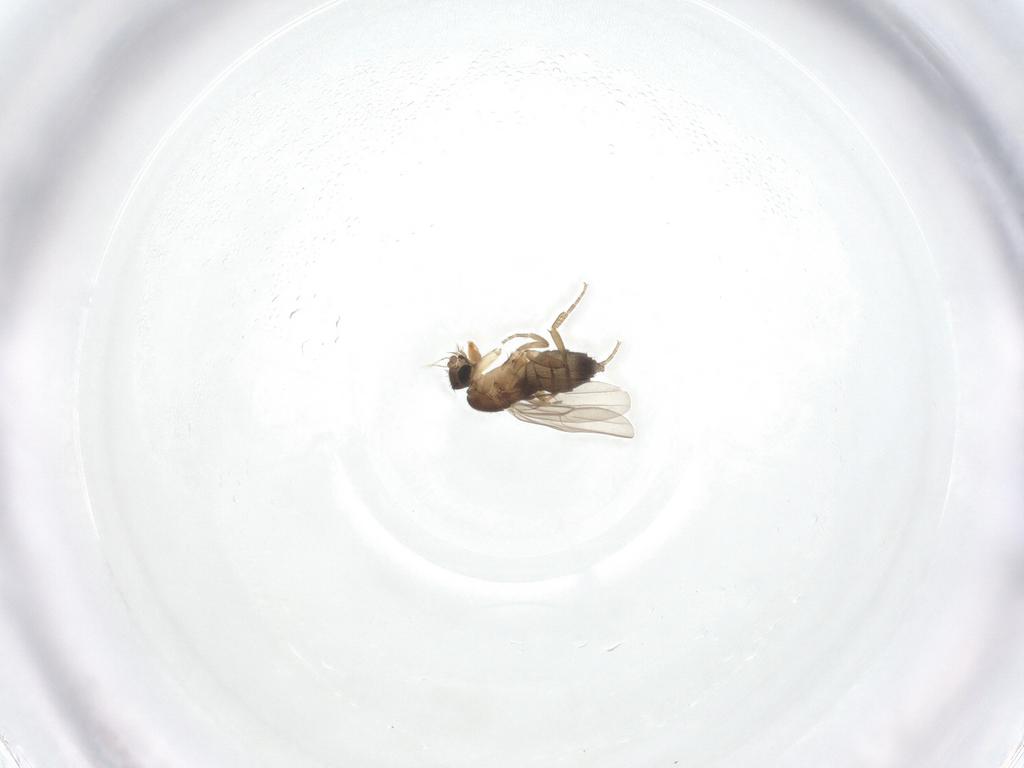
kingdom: Animalia
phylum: Arthropoda
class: Insecta
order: Diptera
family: Phoridae
